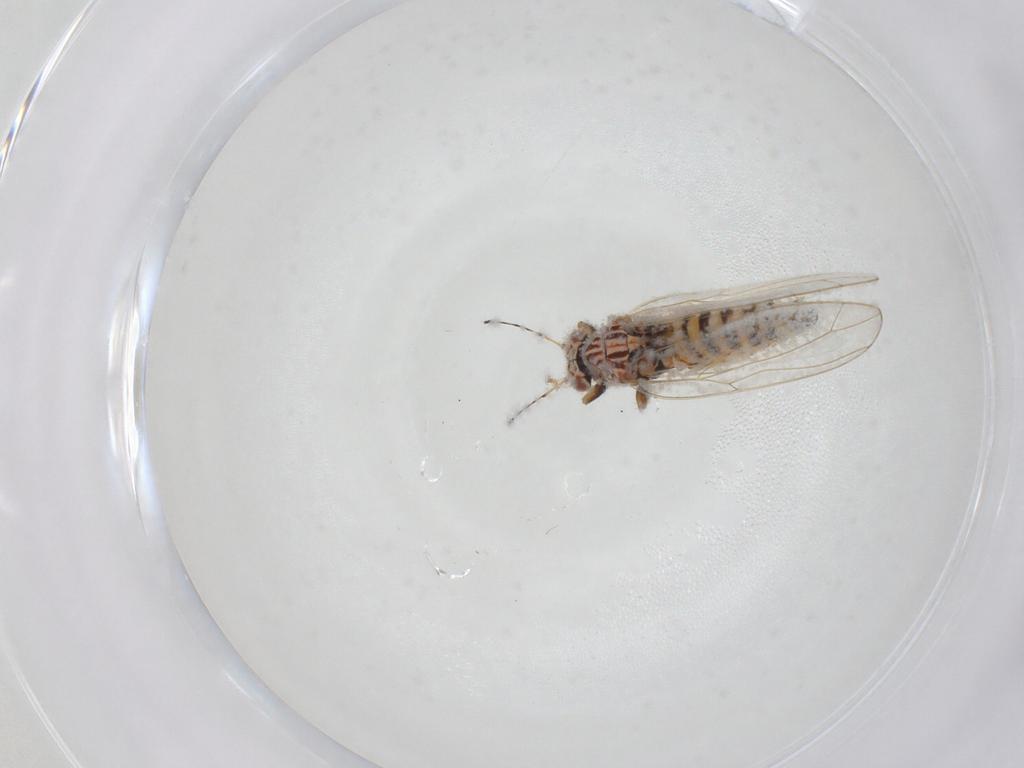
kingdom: Animalia
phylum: Arthropoda
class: Insecta
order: Hemiptera
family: Triozidae
